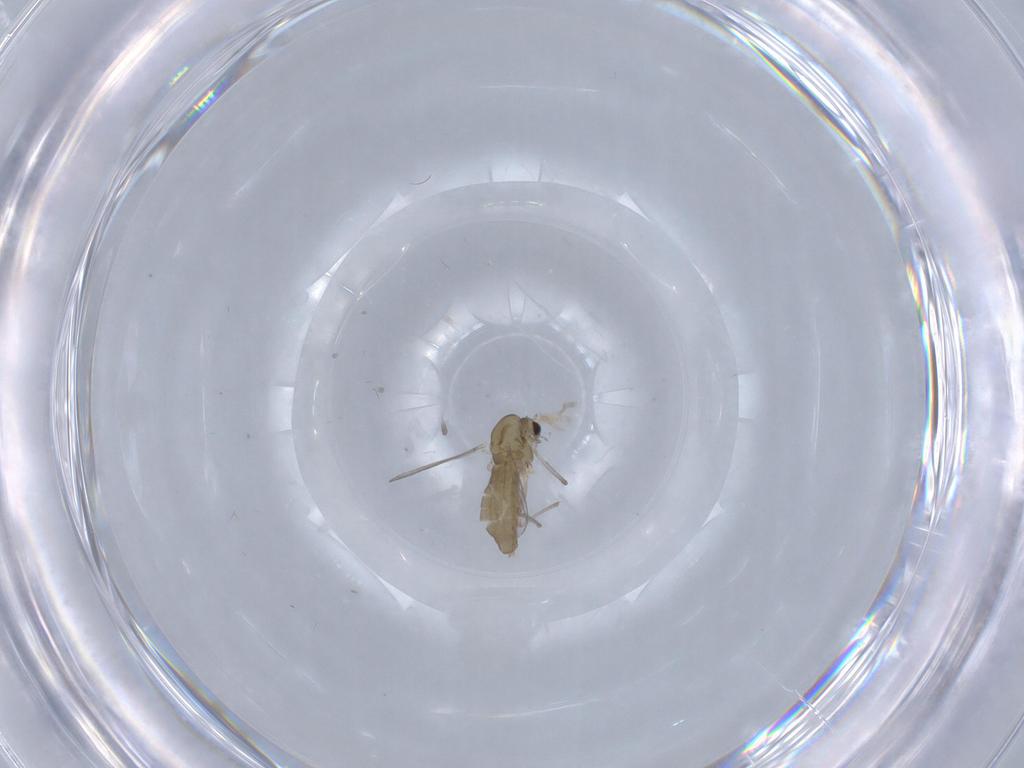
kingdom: Animalia
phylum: Arthropoda
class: Insecta
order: Diptera
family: Chironomidae
